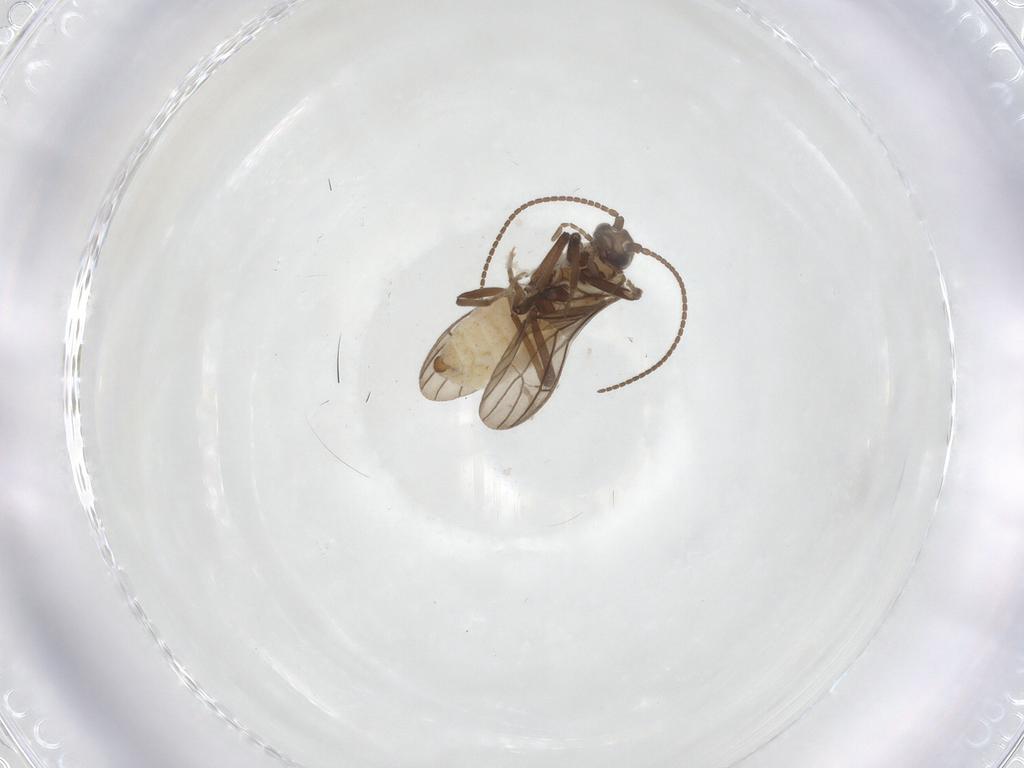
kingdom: Animalia
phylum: Arthropoda
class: Insecta
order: Neuroptera
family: Coniopterygidae
